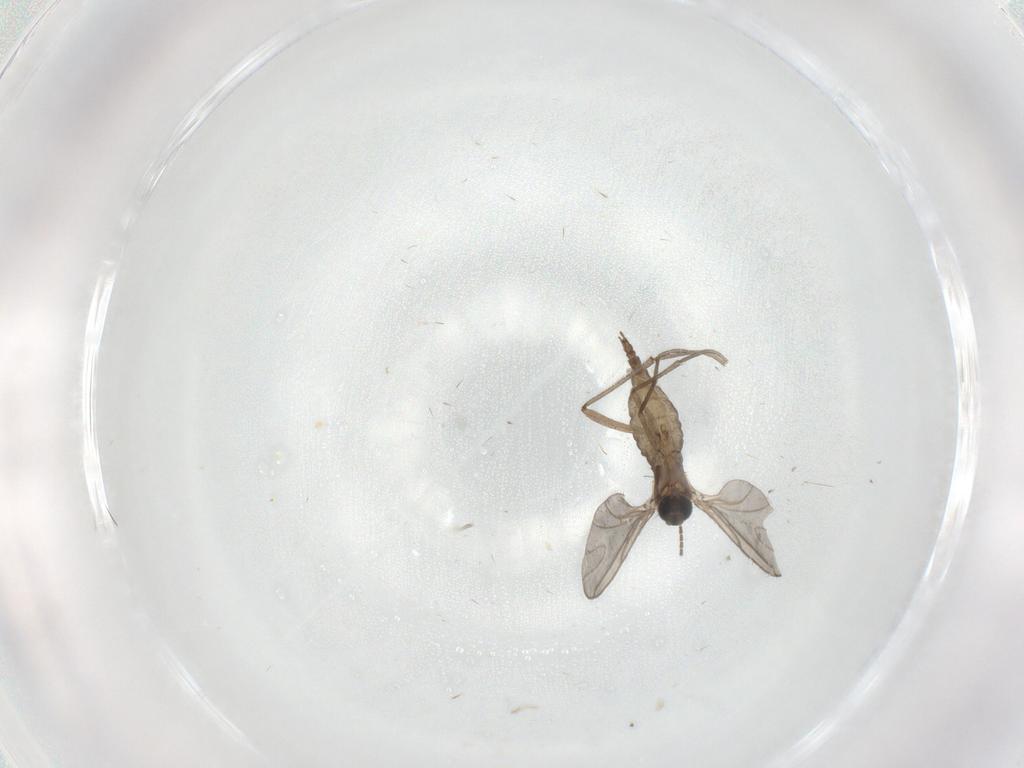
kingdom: Animalia
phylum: Arthropoda
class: Insecta
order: Diptera
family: Sciaridae
